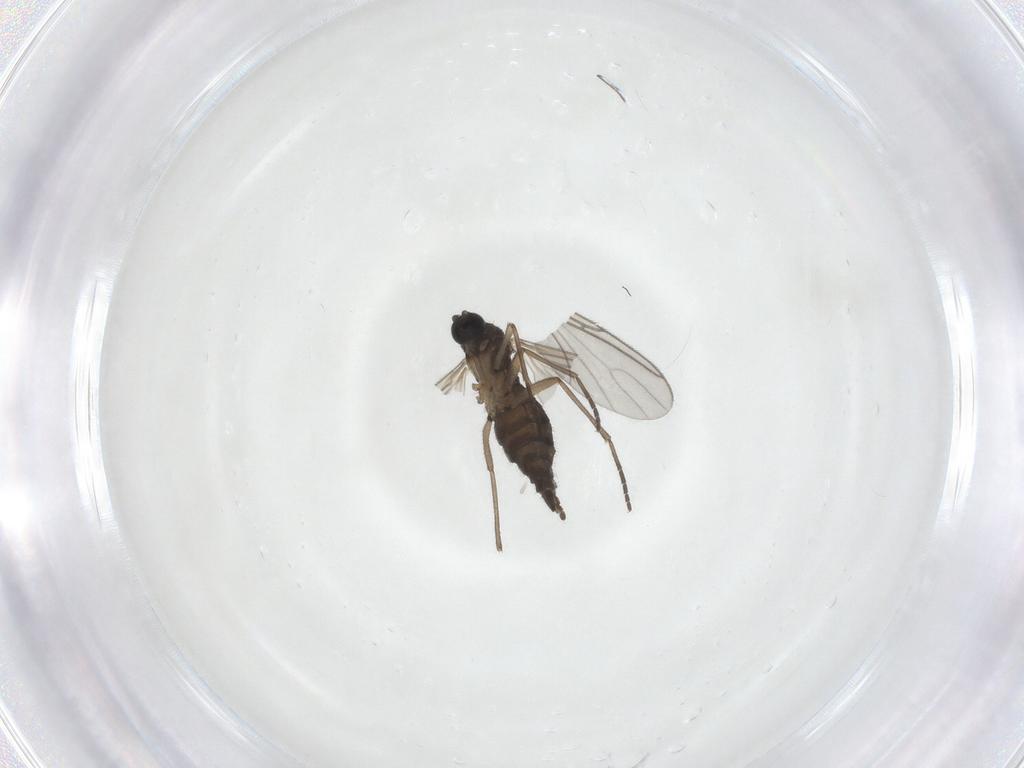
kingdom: Animalia
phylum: Arthropoda
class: Insecta
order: Diptera
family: Sciaridae
